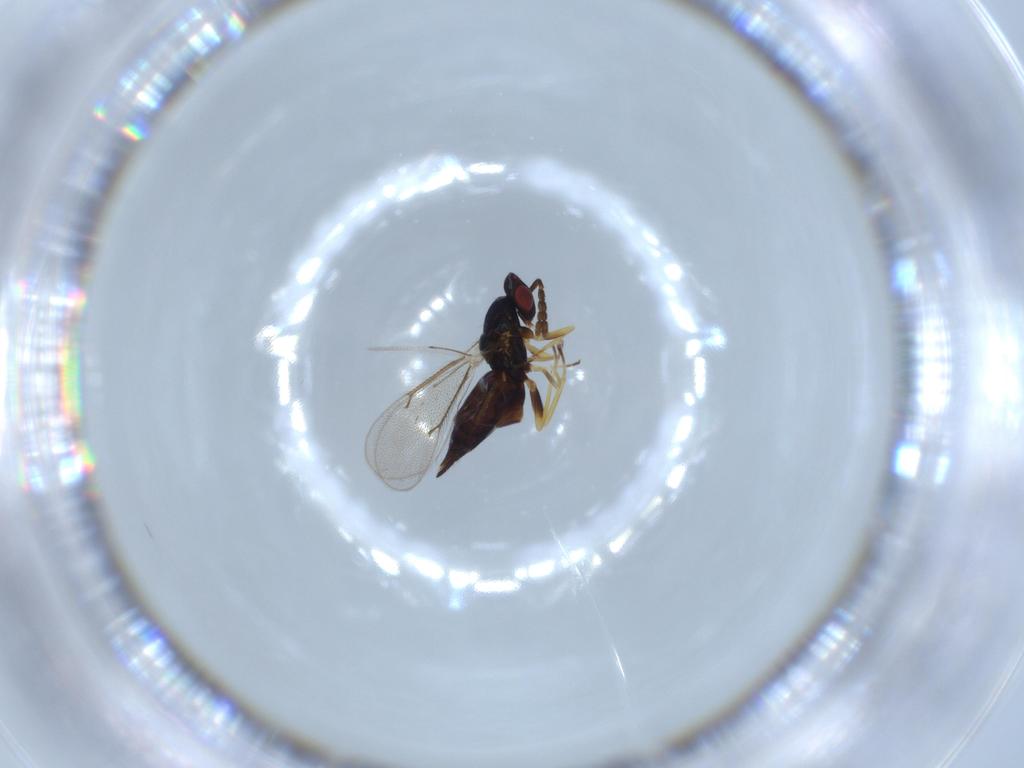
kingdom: Animalia
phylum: Arthropoda
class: Insecta
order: Hymenoptera
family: Eulophidae
